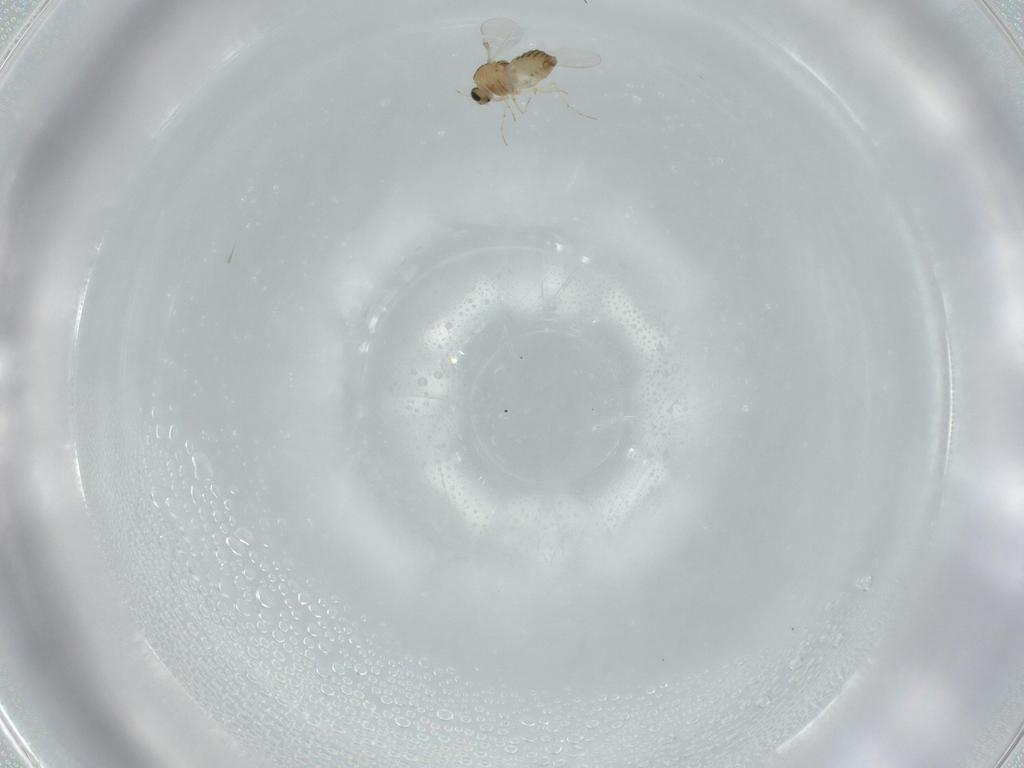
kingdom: Animalia
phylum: Arthropoda
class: Insecta
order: Diptera
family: Chironomidae
